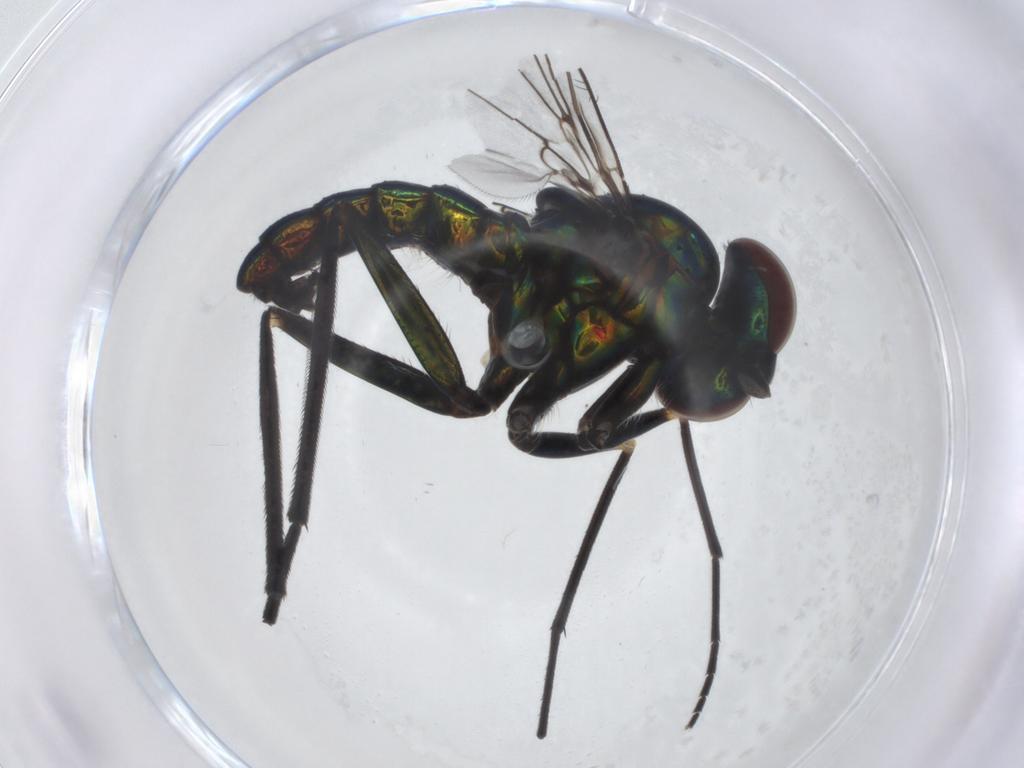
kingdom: Animalia
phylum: Arthropoda
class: Insecta
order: Diptera
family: Dolichopodidae
